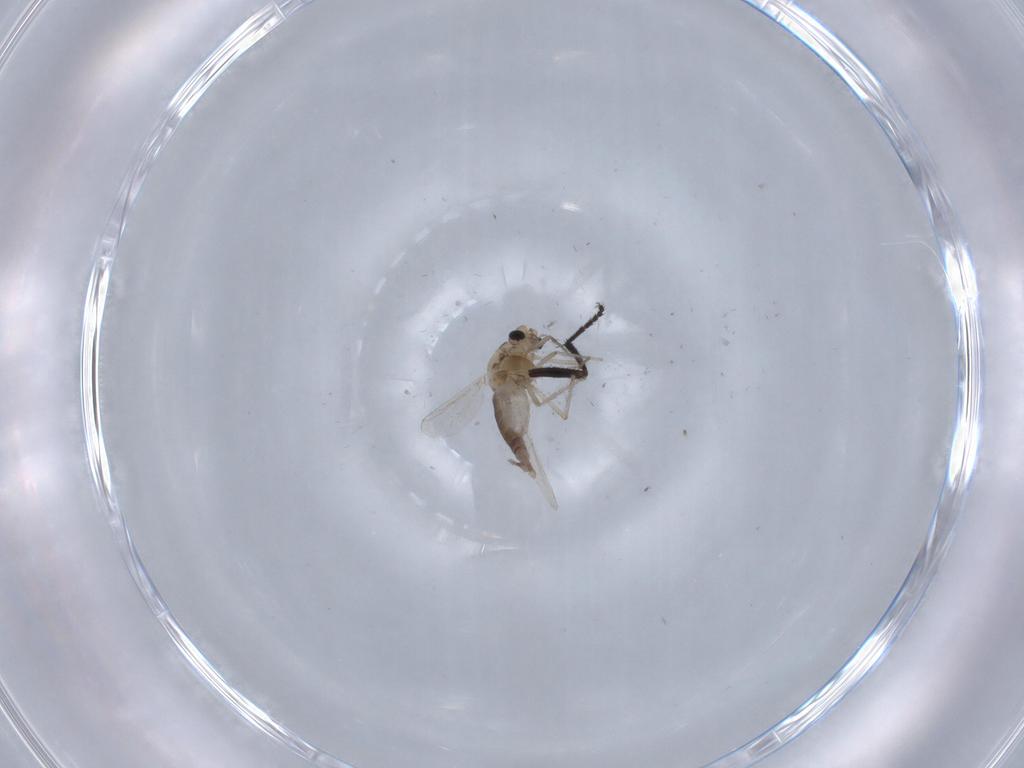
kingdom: Animalia
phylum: Arthropoda
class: Insecta
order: Diptera
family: Chironomidae
